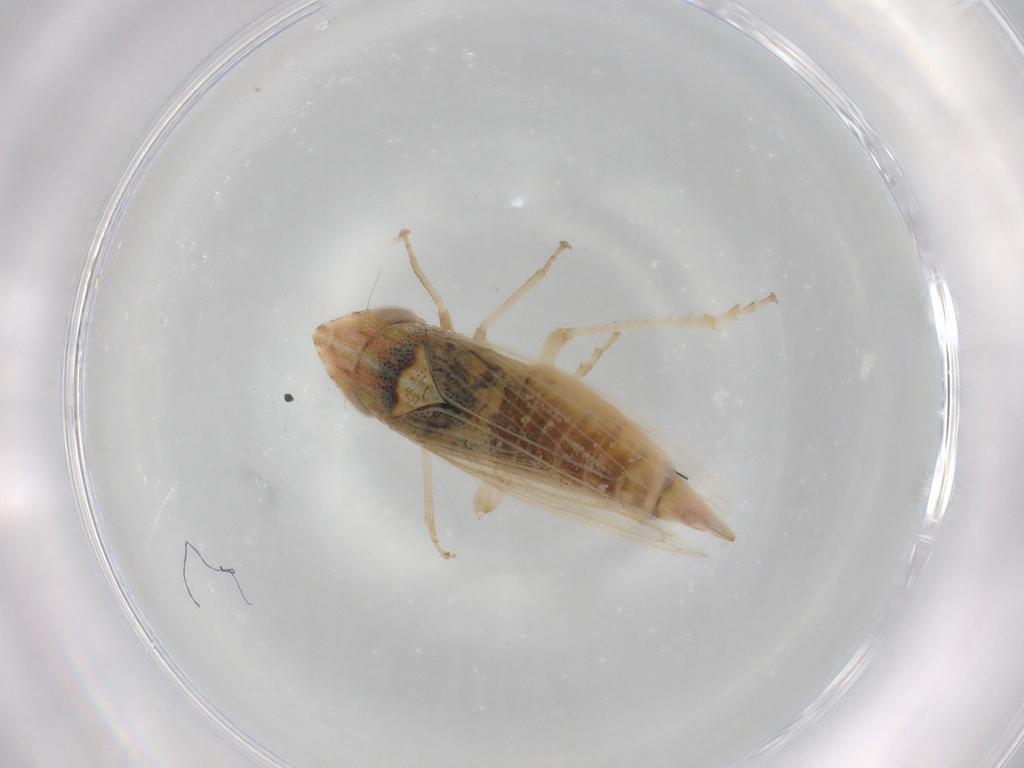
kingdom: Animalia
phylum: Arthropoda
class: Insecta
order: Hemiptera
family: Cicadellidae
